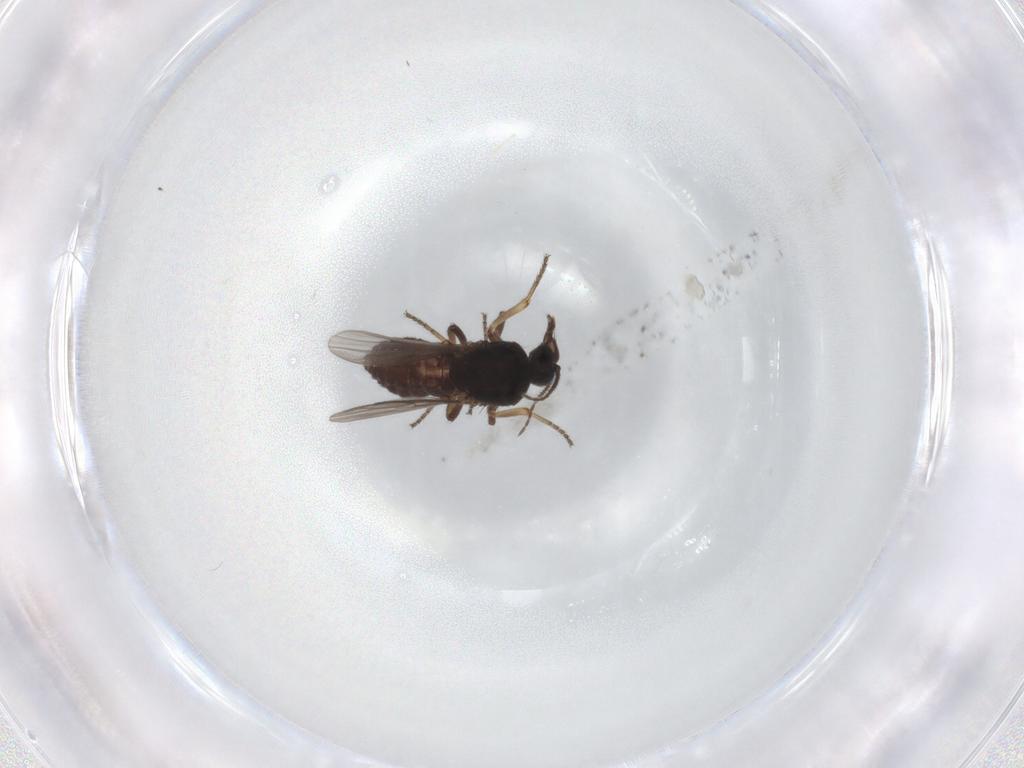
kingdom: Animalia
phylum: Arthropoda
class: Insecta
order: Diptera
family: Ceratopogonidae
